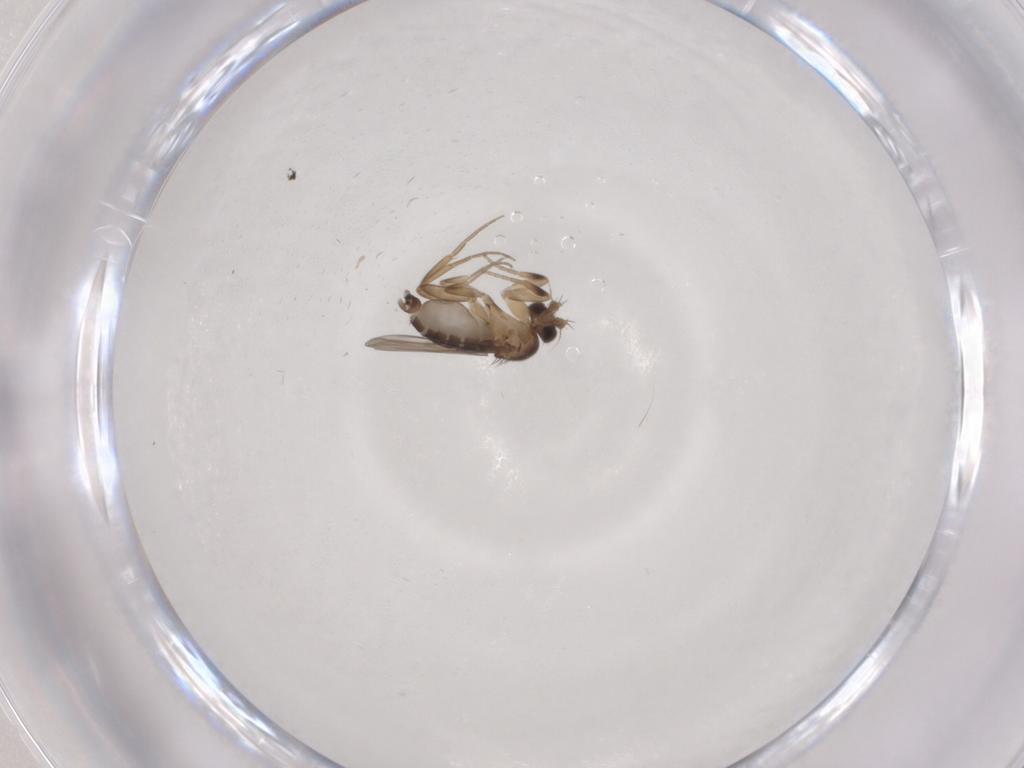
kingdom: Animalia
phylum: Arthropoda
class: Insecta
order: Diptera
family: Phoridae
